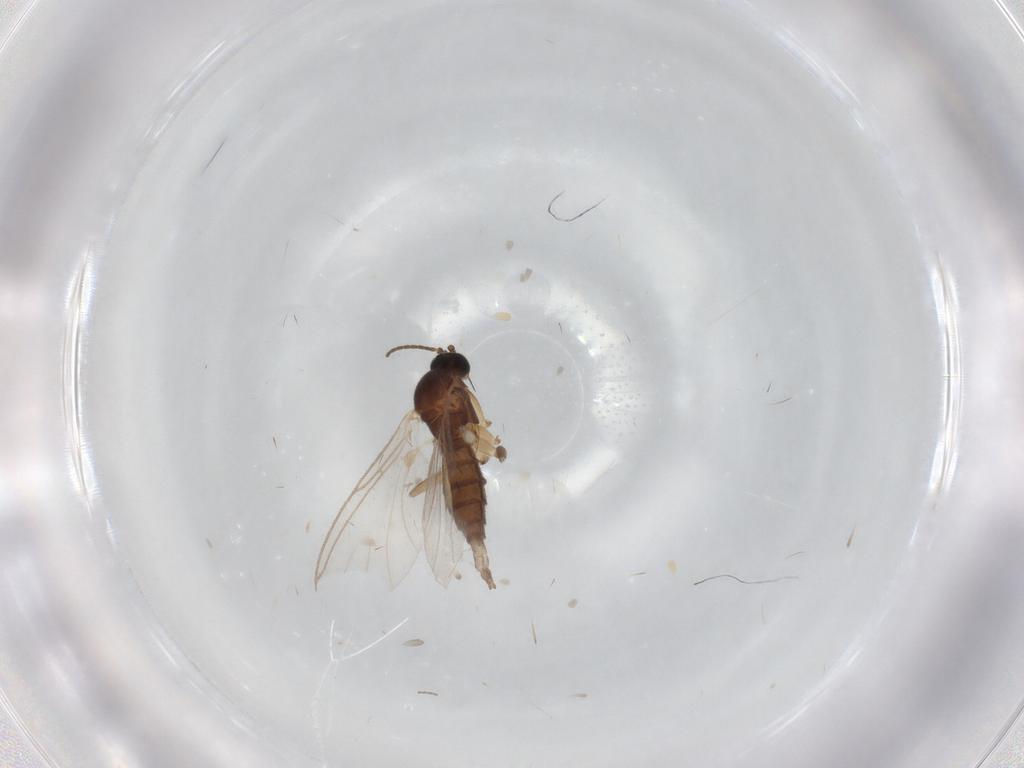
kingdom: Animalia
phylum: Arthropoda
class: Insecta
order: Diptera
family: Sciaridae
